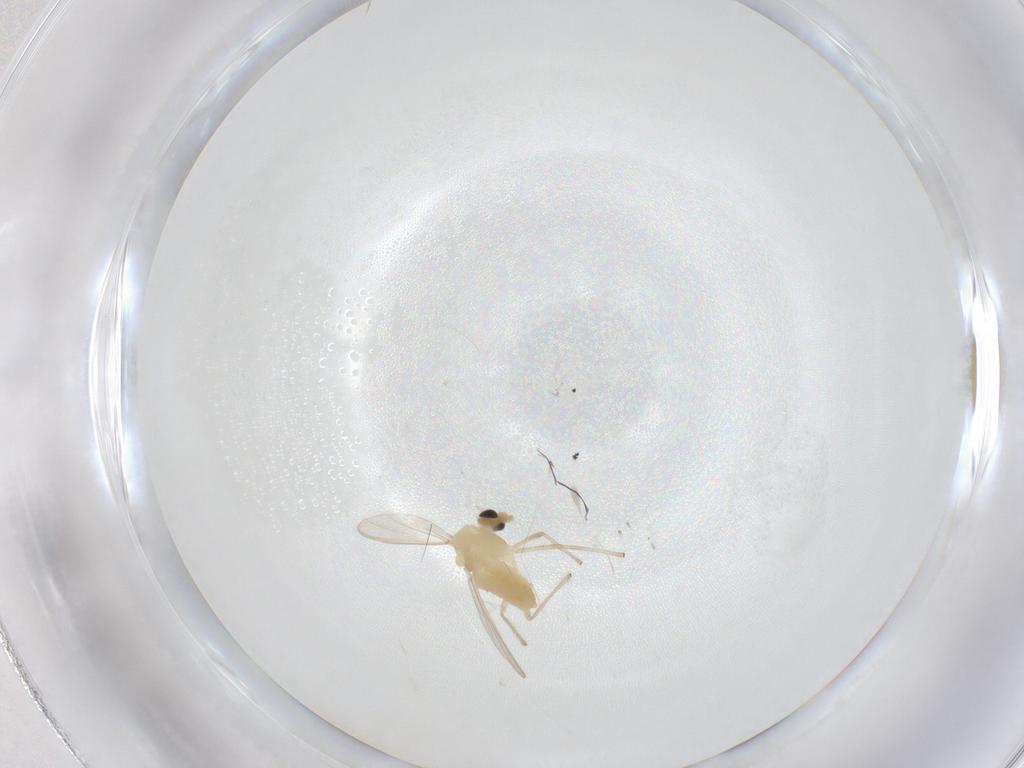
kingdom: Animalia
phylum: Arthropoda
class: Insecta
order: Diptera
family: Chironomidae
